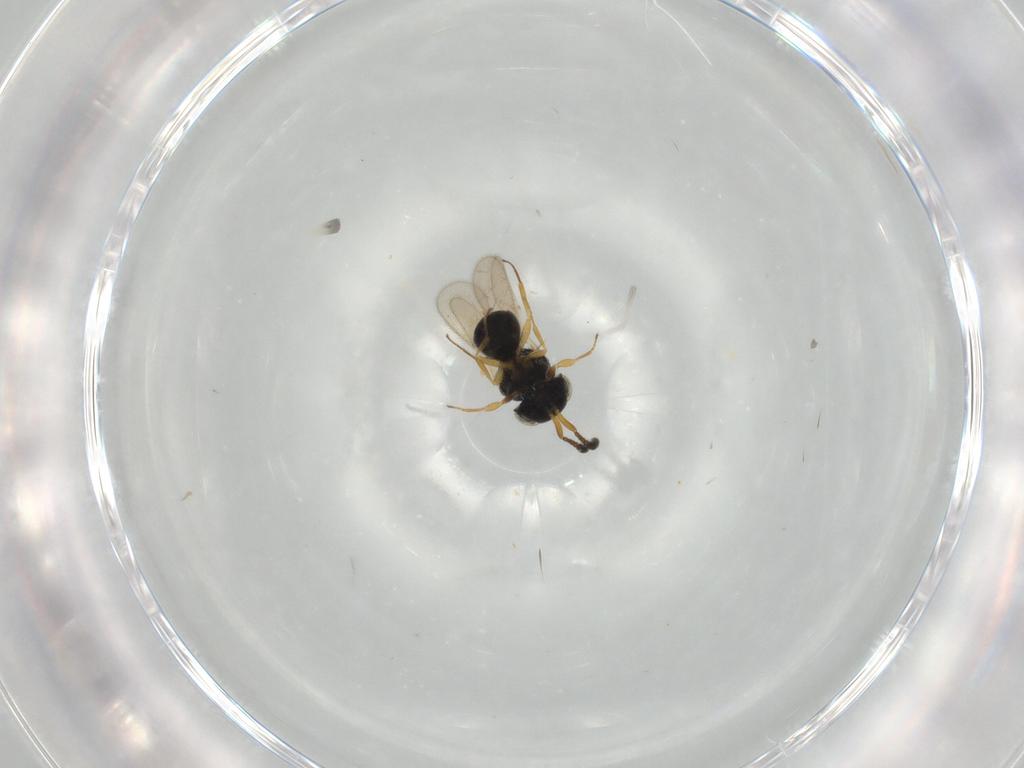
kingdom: Animalia
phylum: Arthropoda
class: Insecta
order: Hymenoptera
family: Scelionidae
